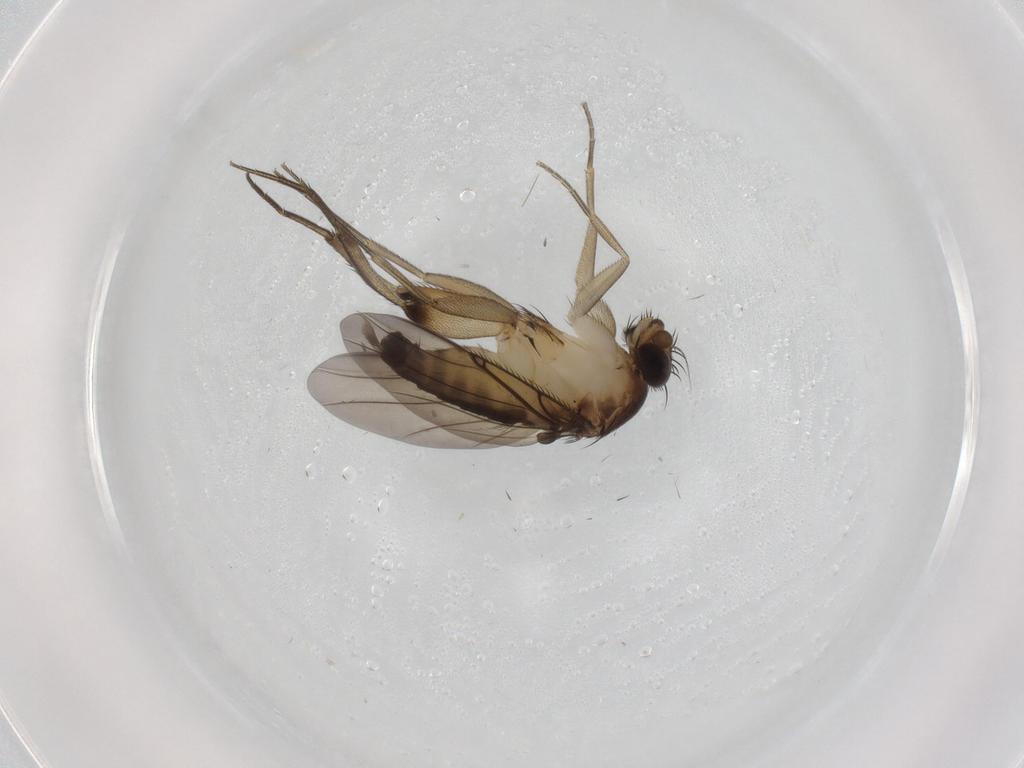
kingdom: Animalia
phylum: Arthropoda
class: Insecta
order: Diptera
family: Phoridae
